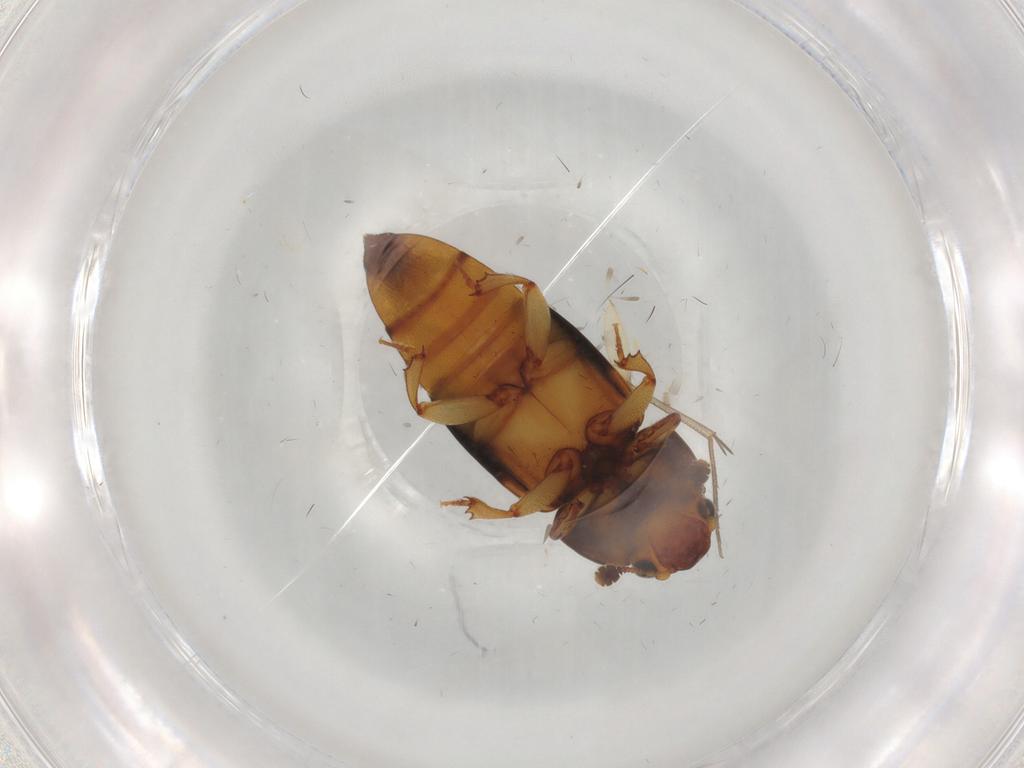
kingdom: Animalia
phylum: Arthropoda
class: Insecta
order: Coleoptera
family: Nitidulidae
